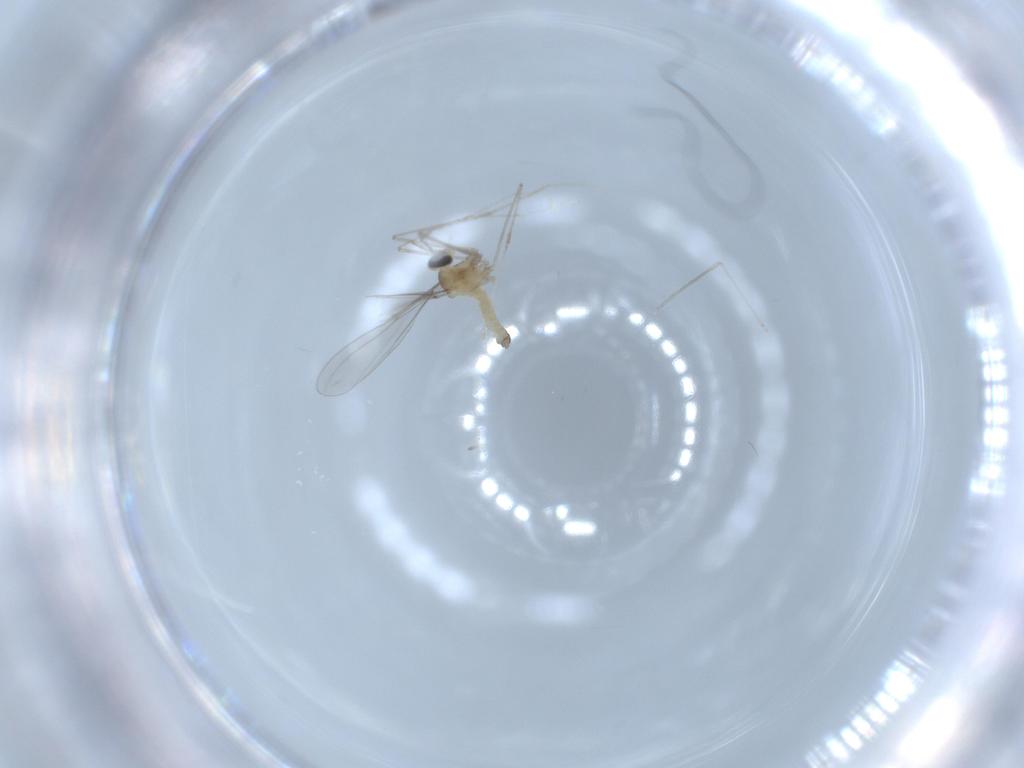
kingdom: Animalia
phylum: Arthropoda
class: Insecta
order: Diptera
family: Cecidomyiidae
